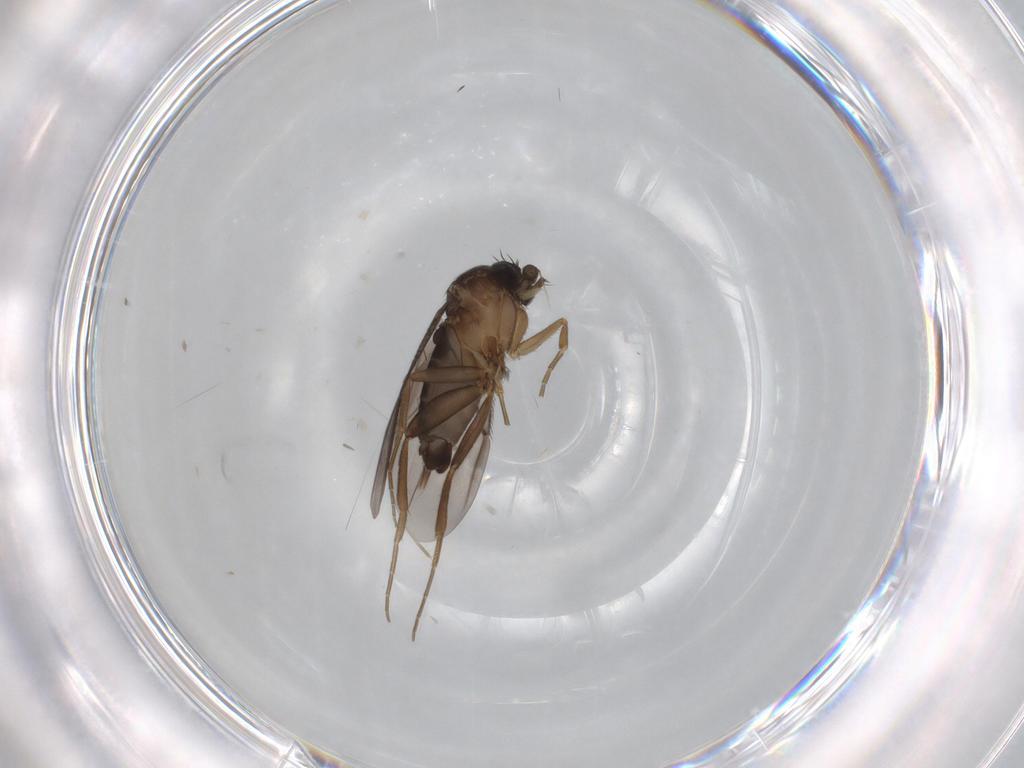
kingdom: Animalia
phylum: Arthropoda
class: Insecta
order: Diptera
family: Phoridae
